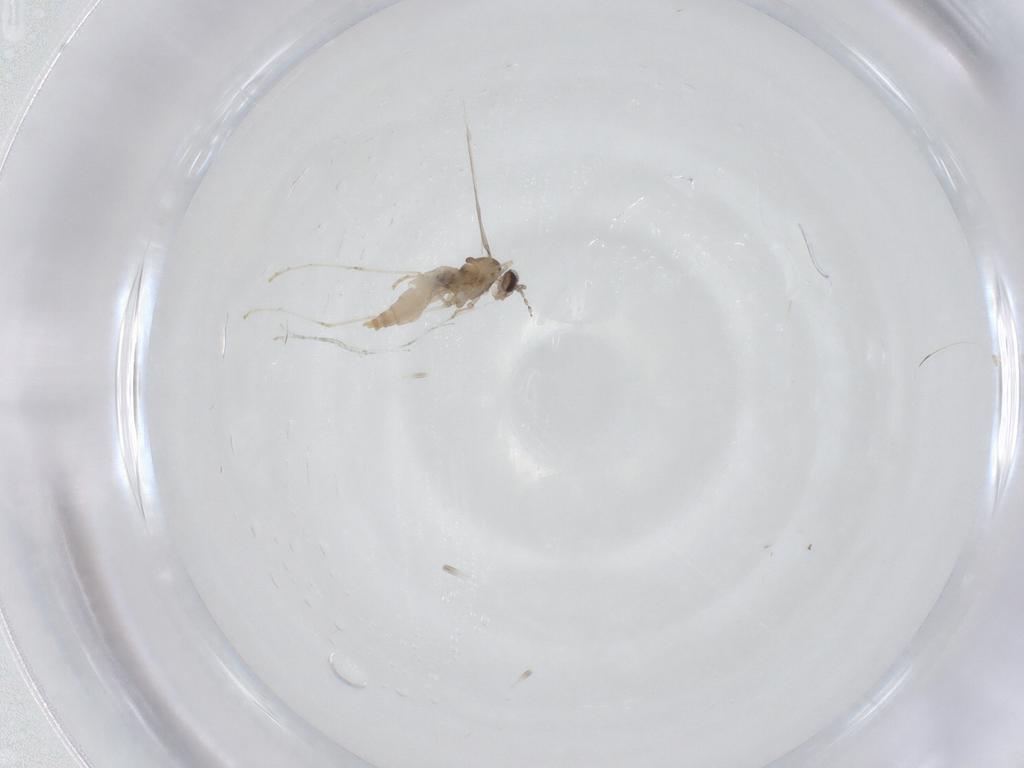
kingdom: Animalia
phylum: Arthropoda
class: Insecta
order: Diptera
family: Cecidomyiidae
